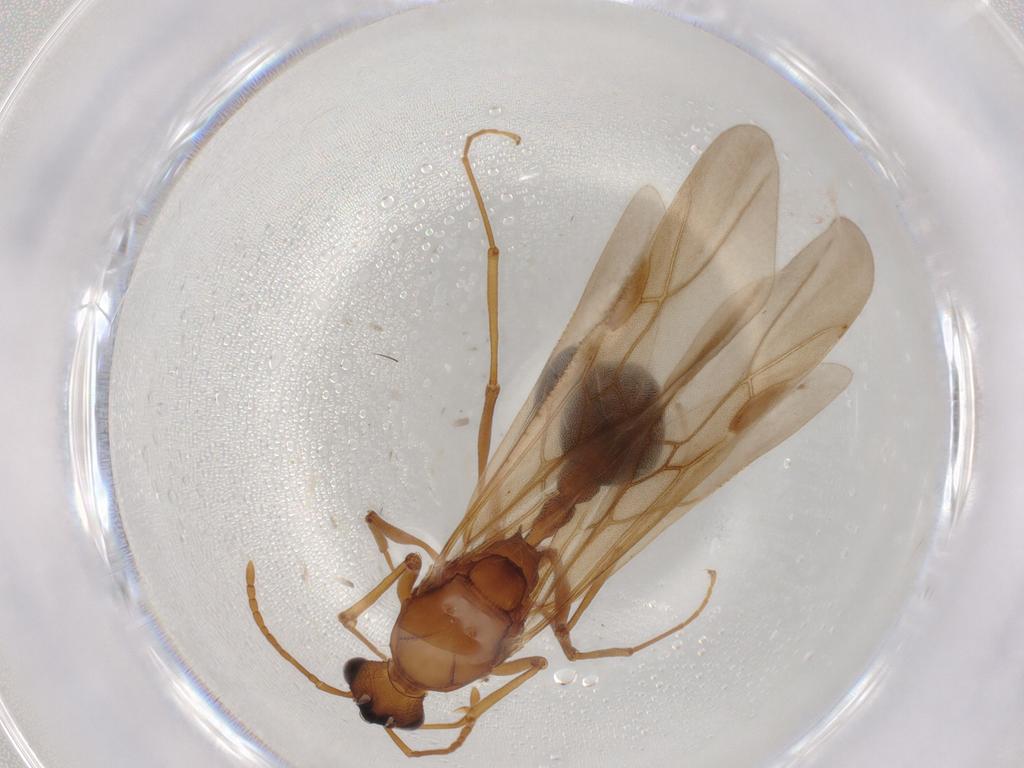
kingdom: Animalia
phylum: Arthropoda
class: Insecta
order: Hymenoptera
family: Formicidae
